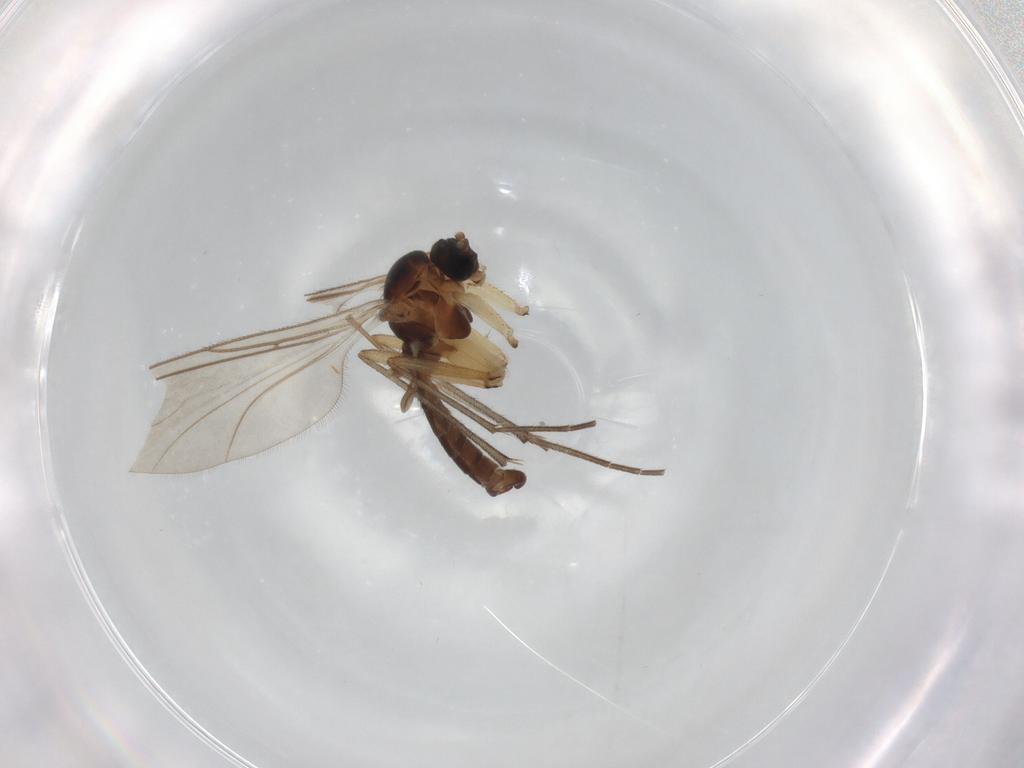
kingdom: Animalia
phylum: Arthropoda
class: Insecta
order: Diptera
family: Sciaridae
